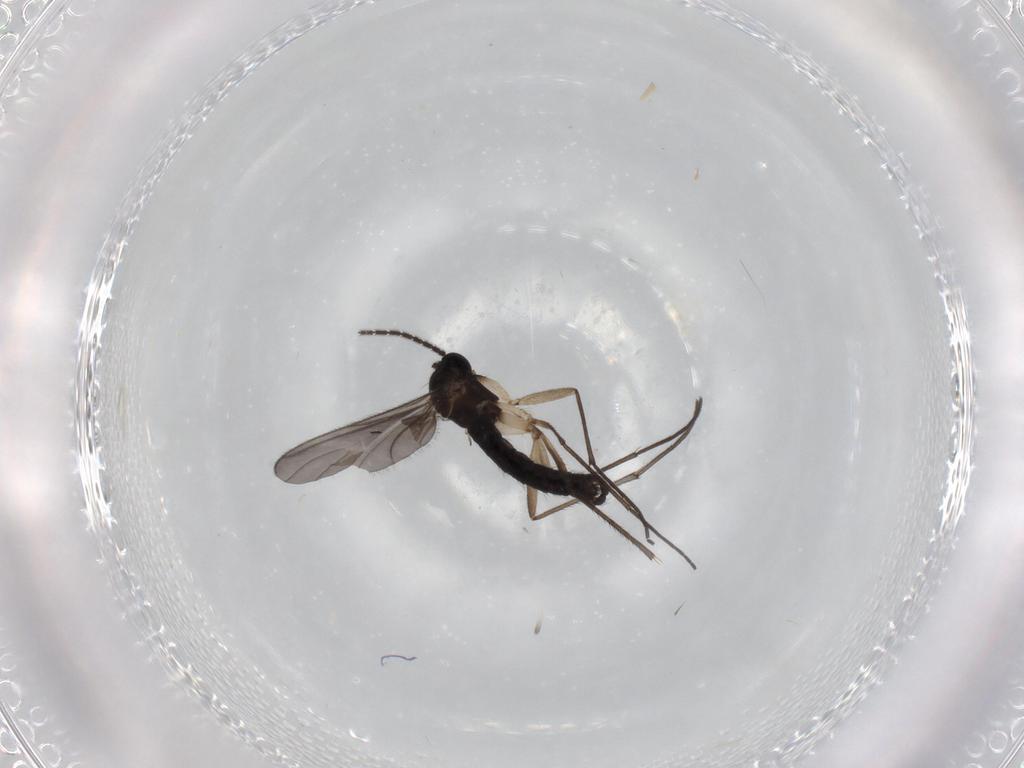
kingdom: Animalia
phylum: Arthropoda
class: Insecta
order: Diptera
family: Sciaridae
